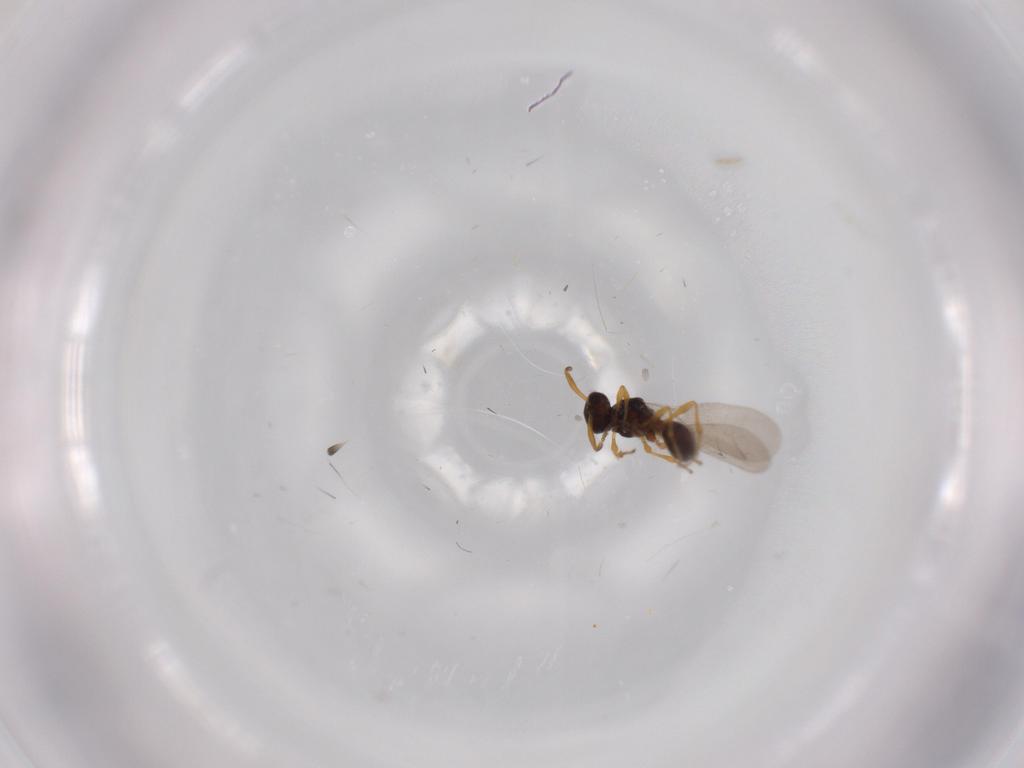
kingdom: Animalia
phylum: Arthropoda
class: Insecta
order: Diptera
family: Mythicomyiidae
